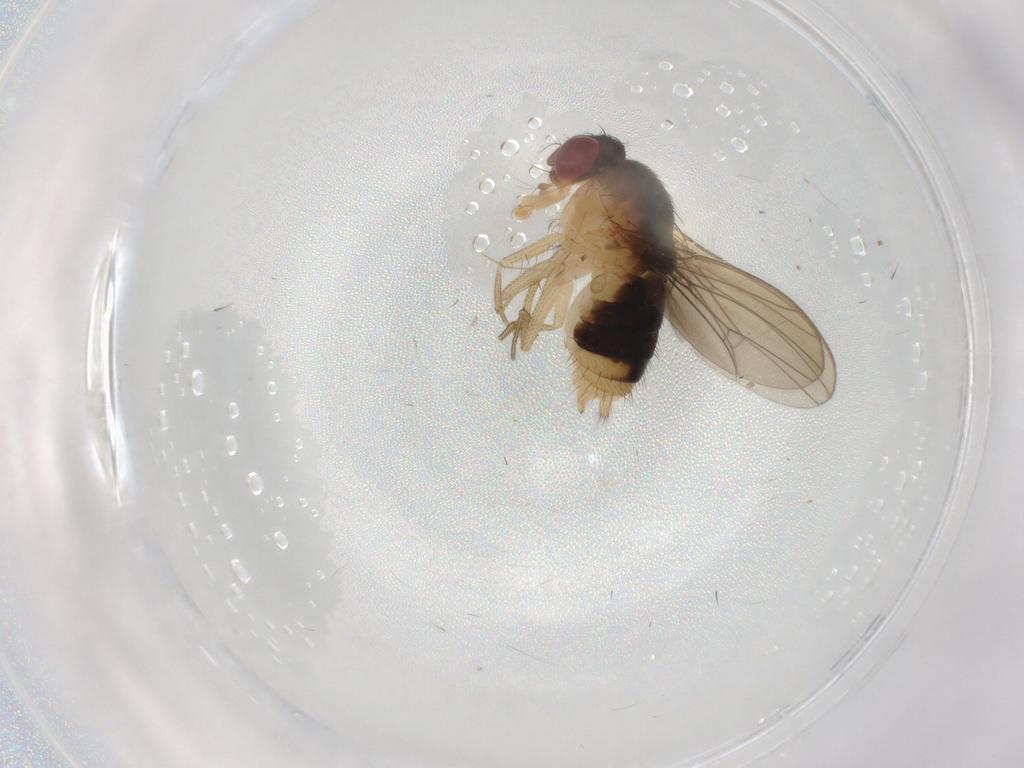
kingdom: Animalia
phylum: Arthropoda
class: Insecta
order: Diptera
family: Drosophilidae
